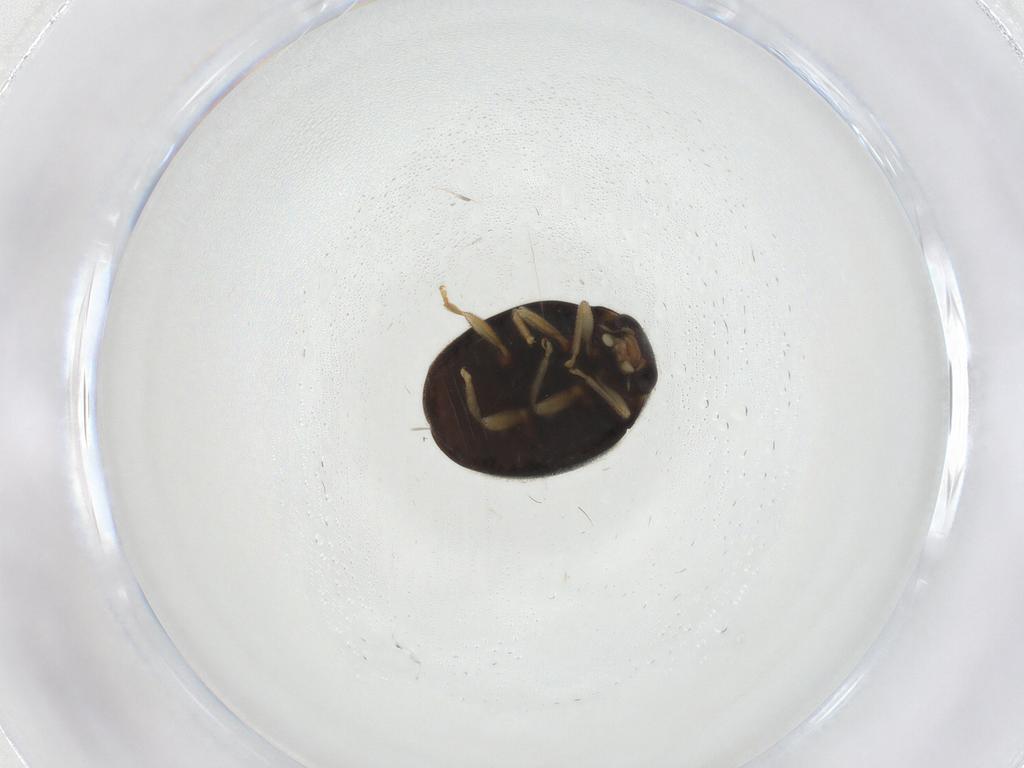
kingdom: Animalia
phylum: Arthropoda
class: Insecta
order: Coleoptera
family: Coccinellidae
